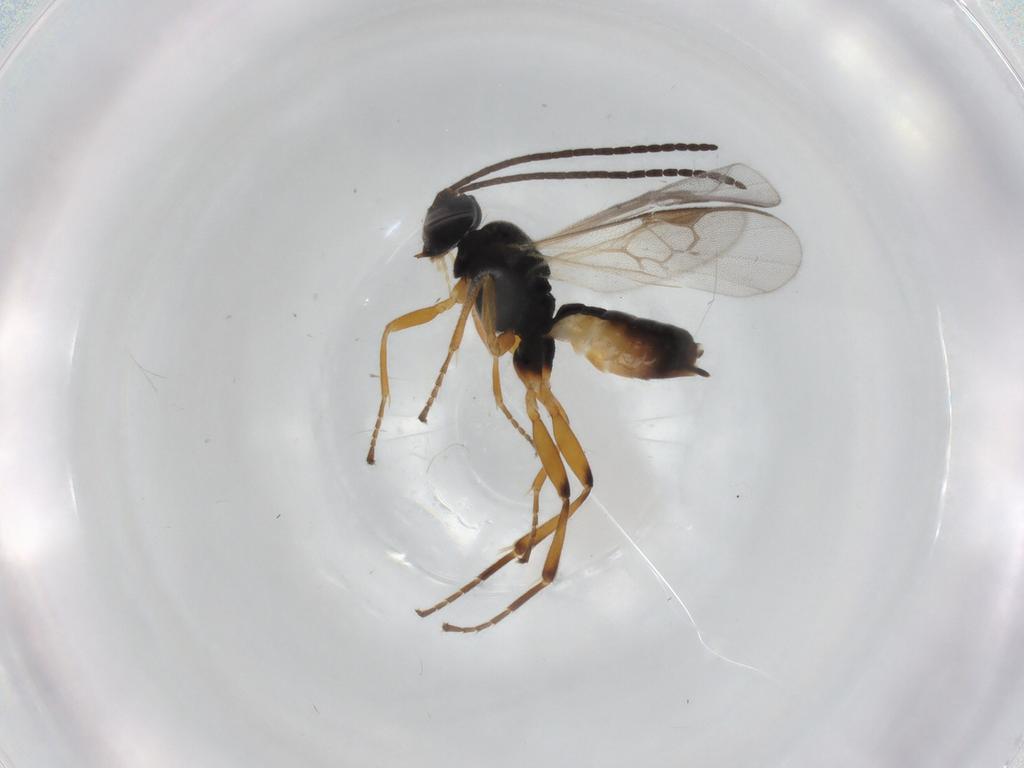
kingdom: Animalia
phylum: Arthropoda
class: Insecta
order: Hymenoptera
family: Braconidae
